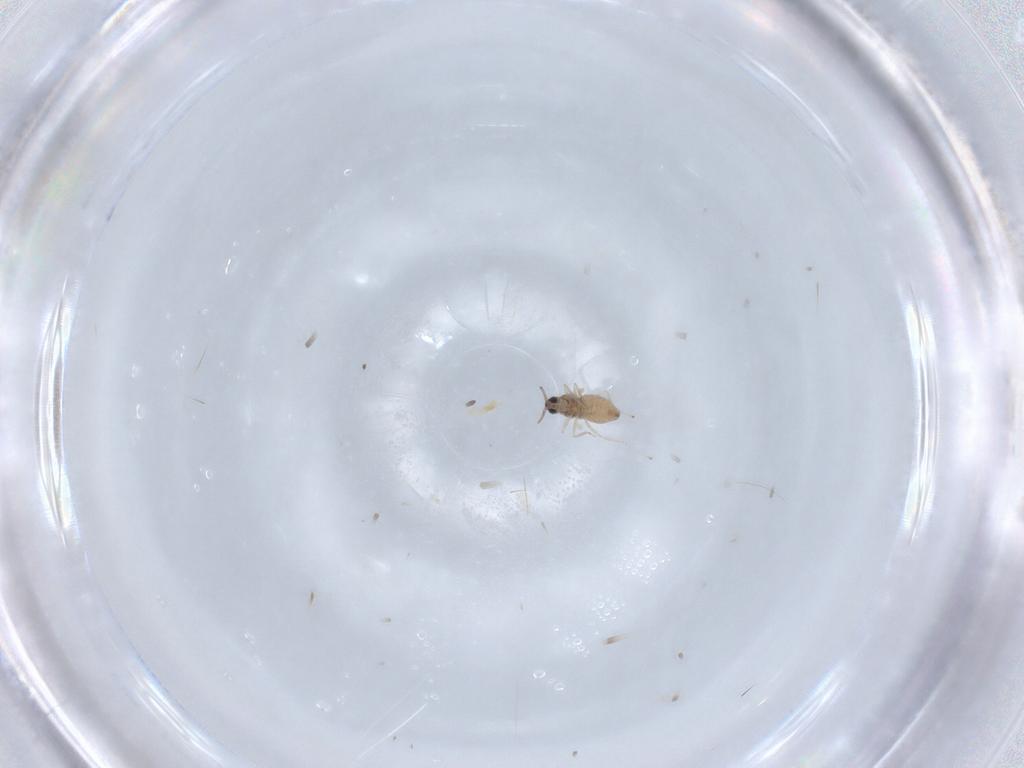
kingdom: Animalia
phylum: Arthropoda
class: Insecta
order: Diptera
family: Cecidomyiidae
